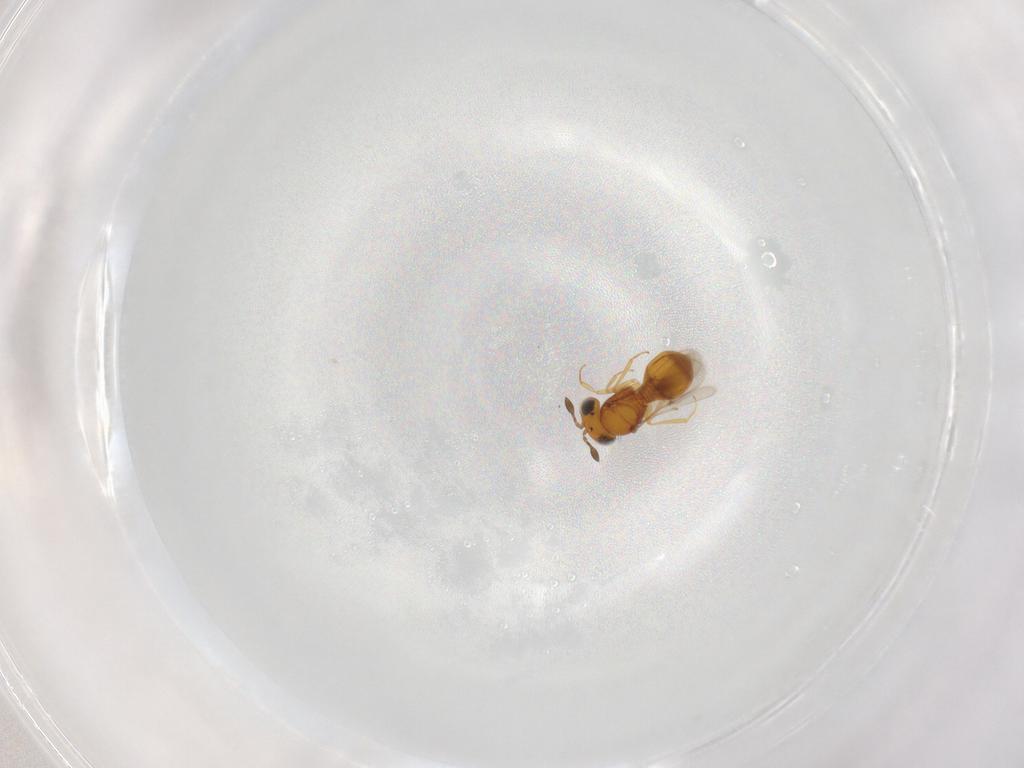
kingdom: Animalia
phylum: Arthropoda
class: Insecta
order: Hymenoptera
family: Scelionidae
